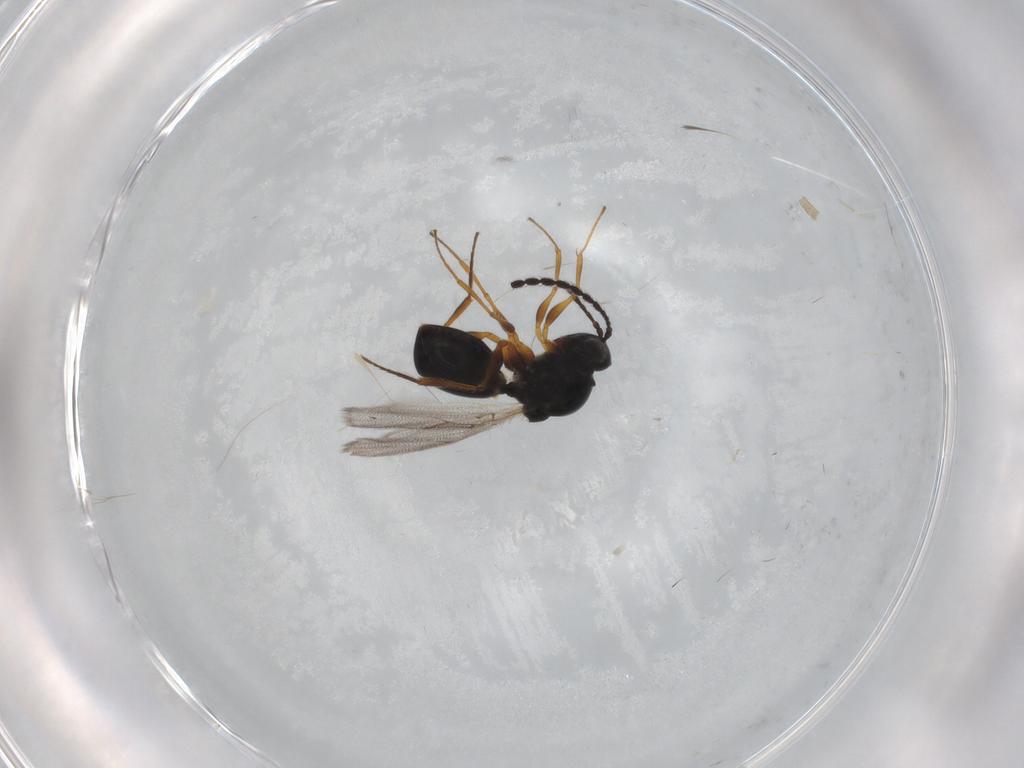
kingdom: Animalia
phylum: Arthropoda
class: Insecta
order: Hymenoptera
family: Figitidae
